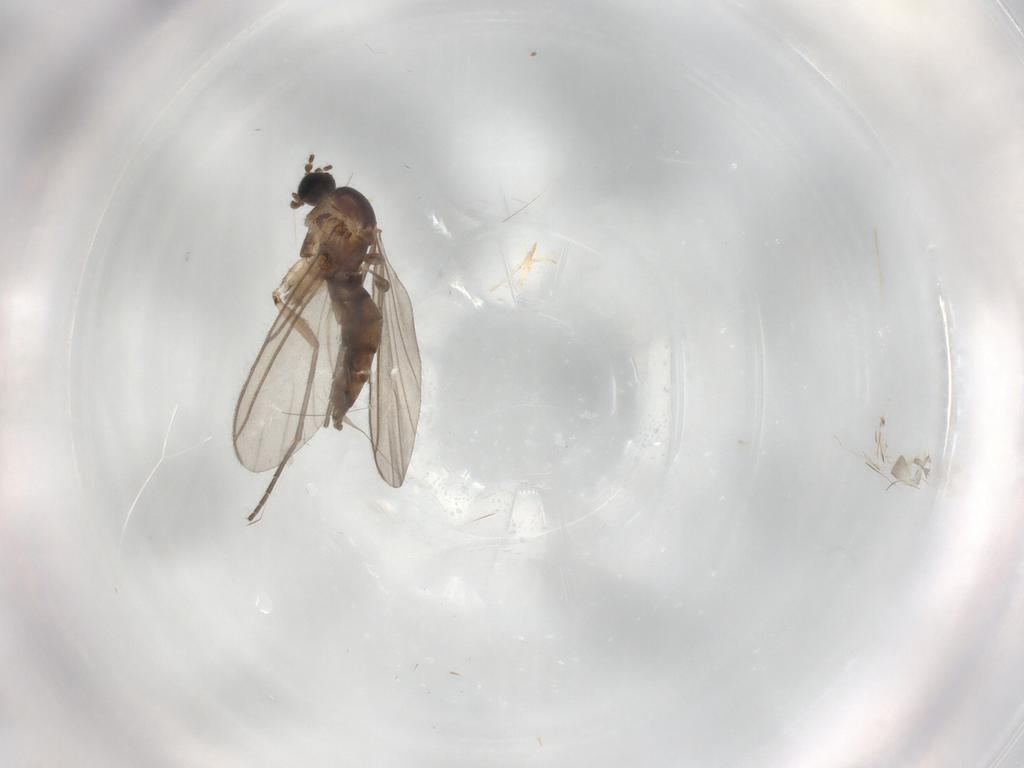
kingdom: Animalia
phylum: Arthropoda
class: Insecta
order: Diptera
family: Sciaridae
